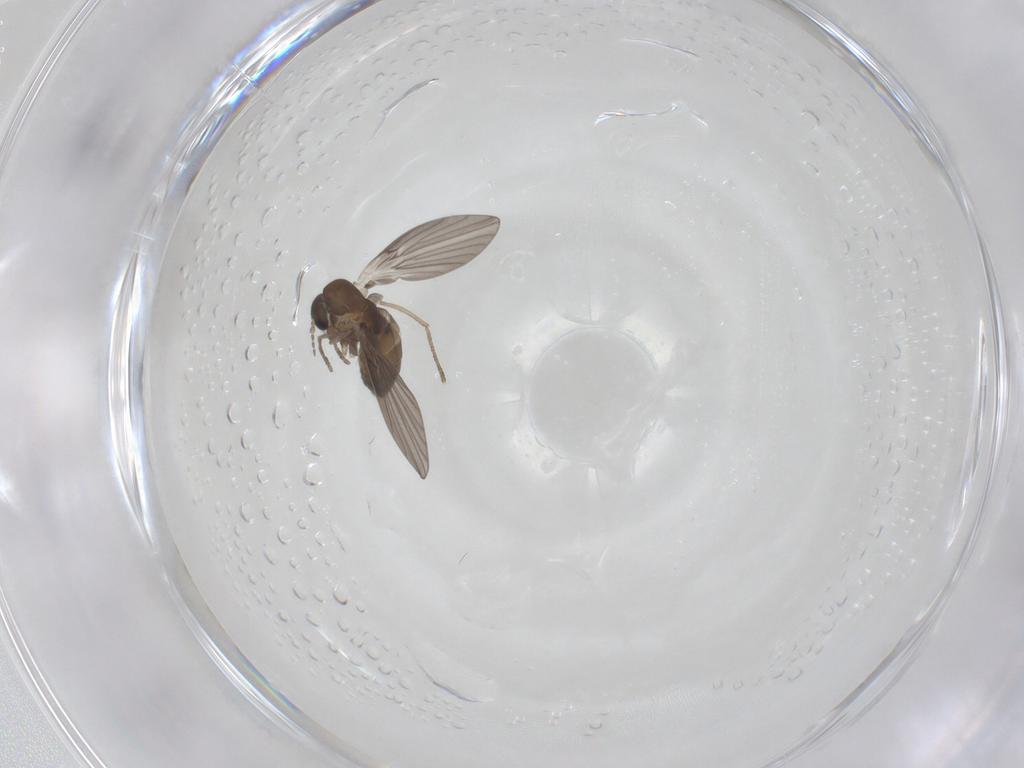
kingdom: Animalia
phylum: Arthropoda
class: Insecta
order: Diptera
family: Psychodidae
